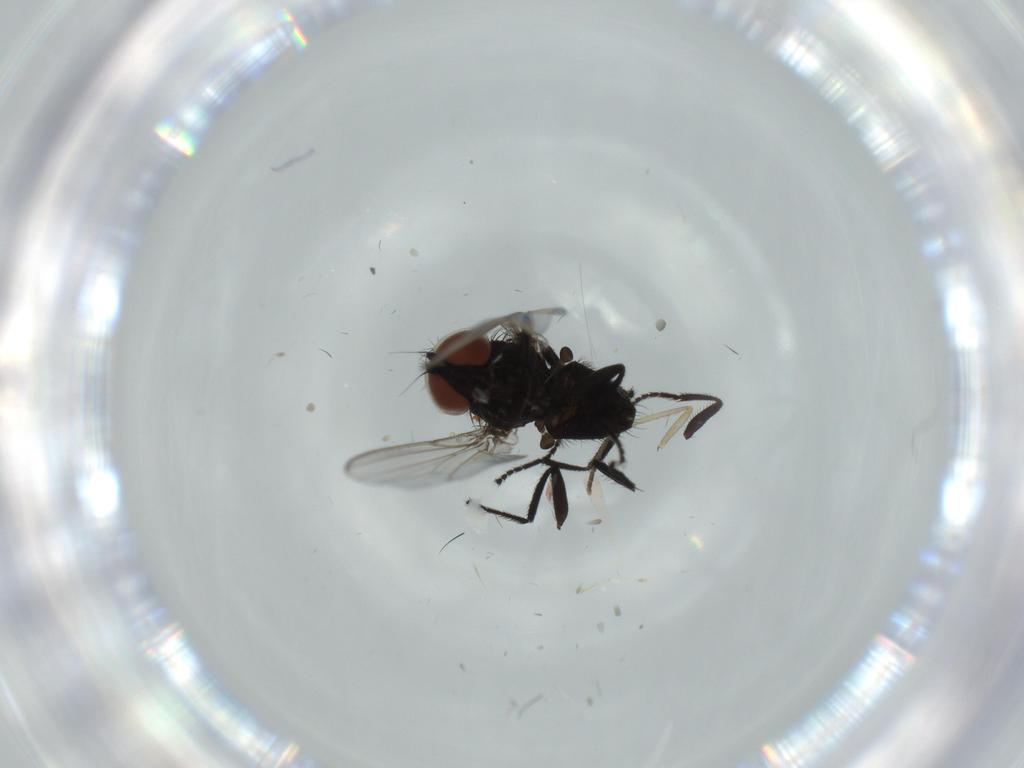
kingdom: Animalia
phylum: Arthropoda
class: Insecta
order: Diptera
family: Milichiidae
